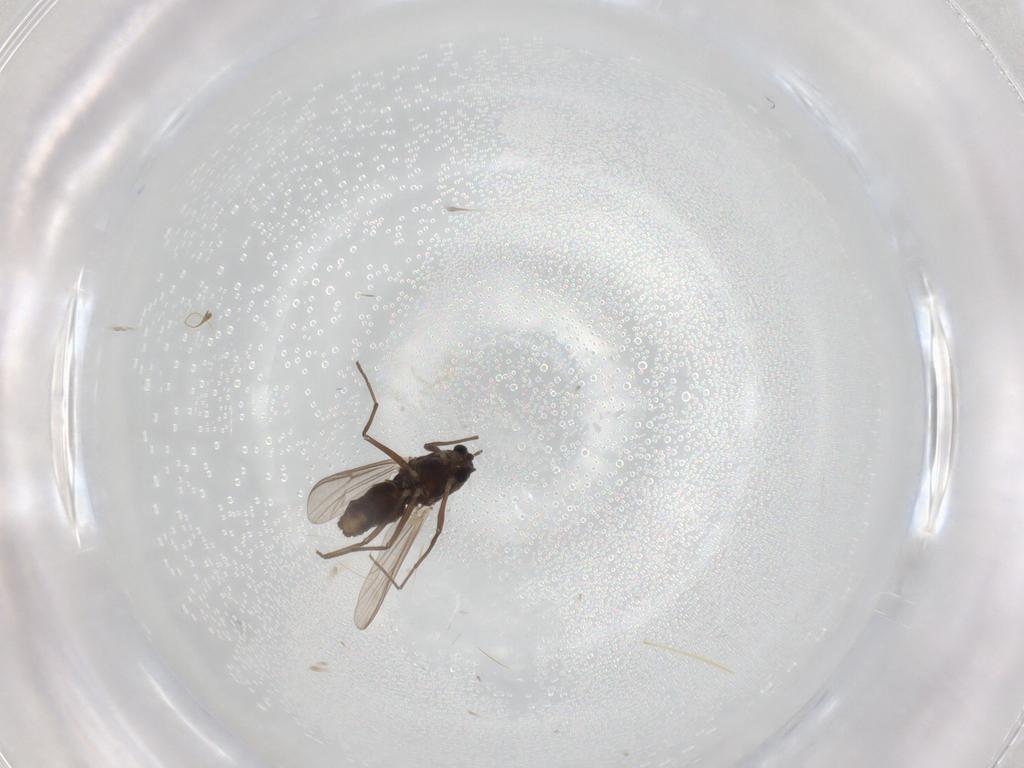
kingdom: Animalia
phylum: Arthropoda
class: Insecta
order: Diptera
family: Chironomidae
